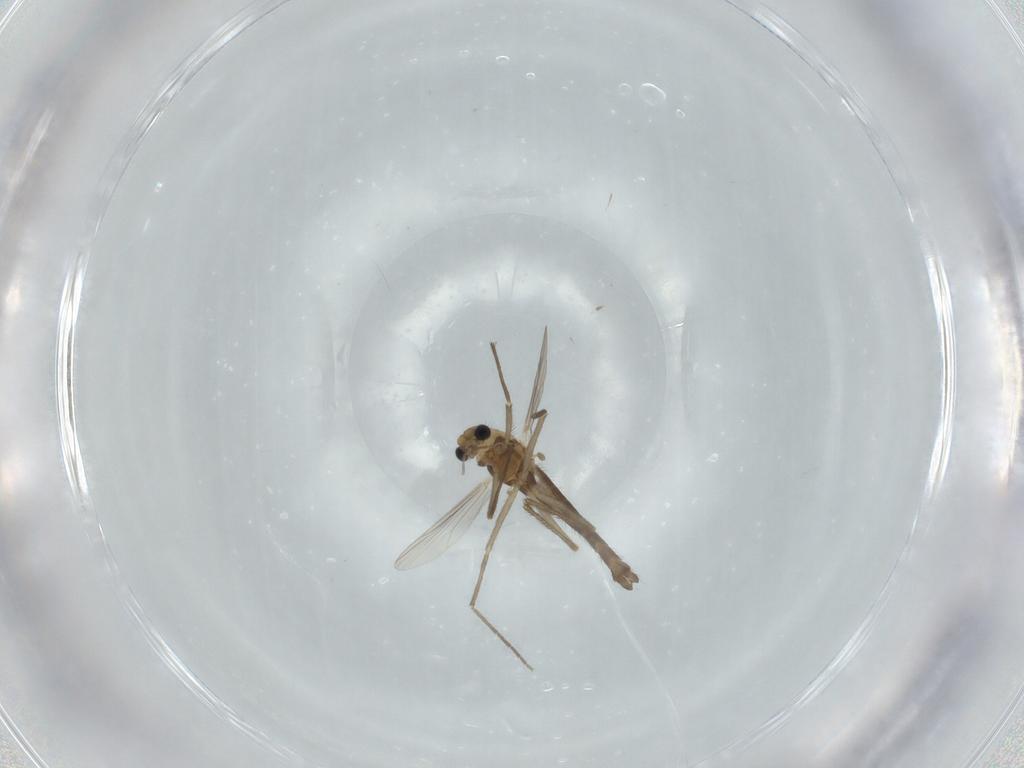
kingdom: Animalia
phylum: Arthropoda
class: Insecta
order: Diptera
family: Chironomidae
